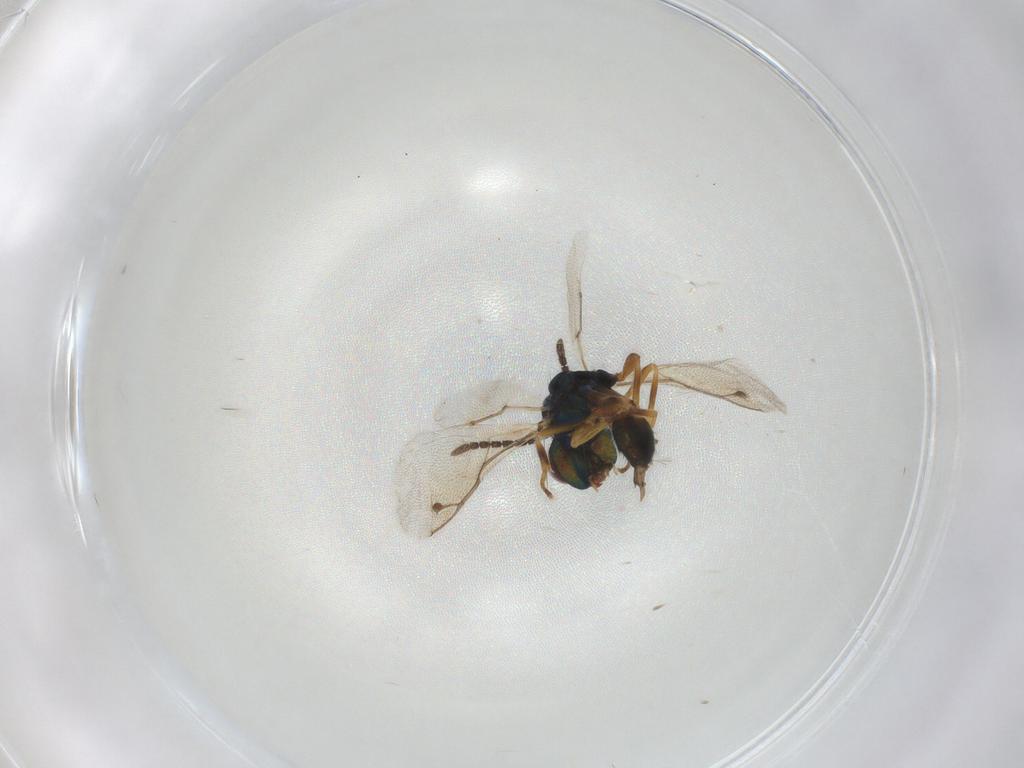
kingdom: Animalia
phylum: Arthropoda
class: Insecta
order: Hymenoptera
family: Pteromalidae
